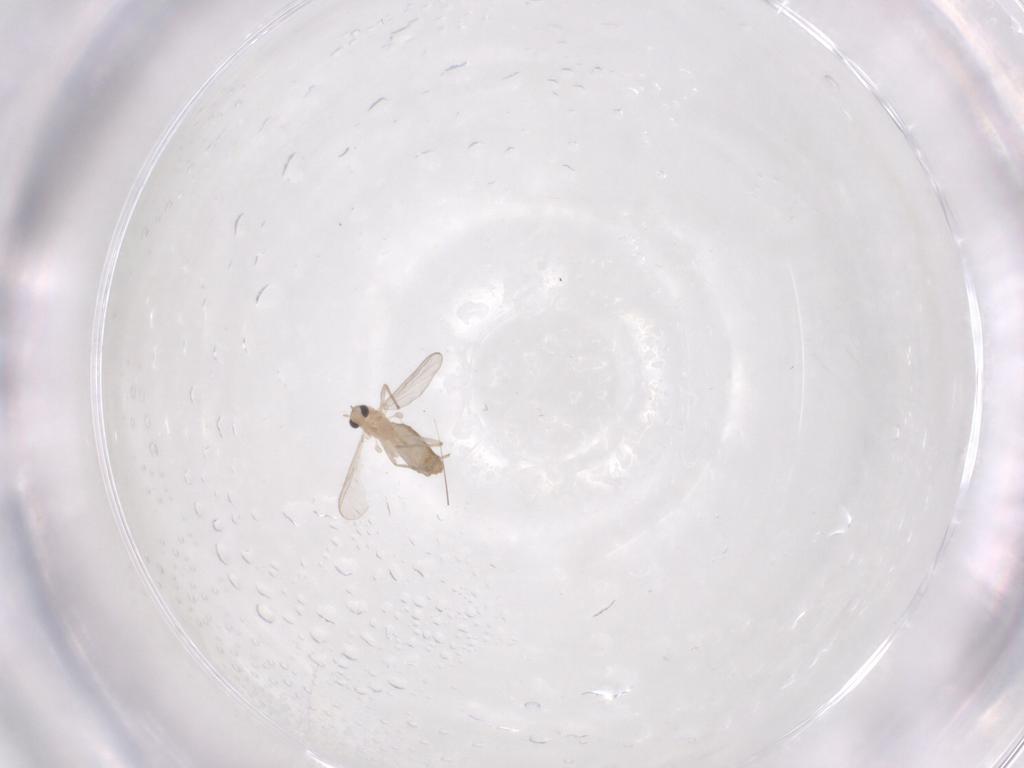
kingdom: Animalia
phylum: Arthropoda
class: Insecta
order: Diptera
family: Chironomidae
